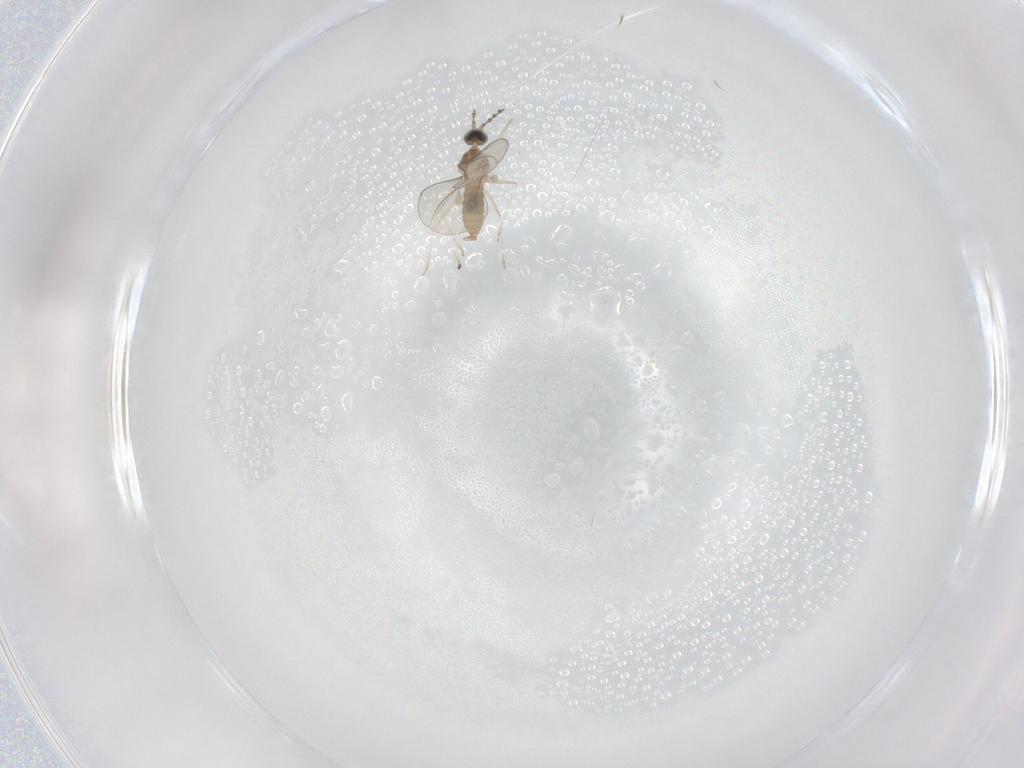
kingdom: Animalia
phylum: Arthropoda
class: Insecta
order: Diptera
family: Cecidomyiidae
